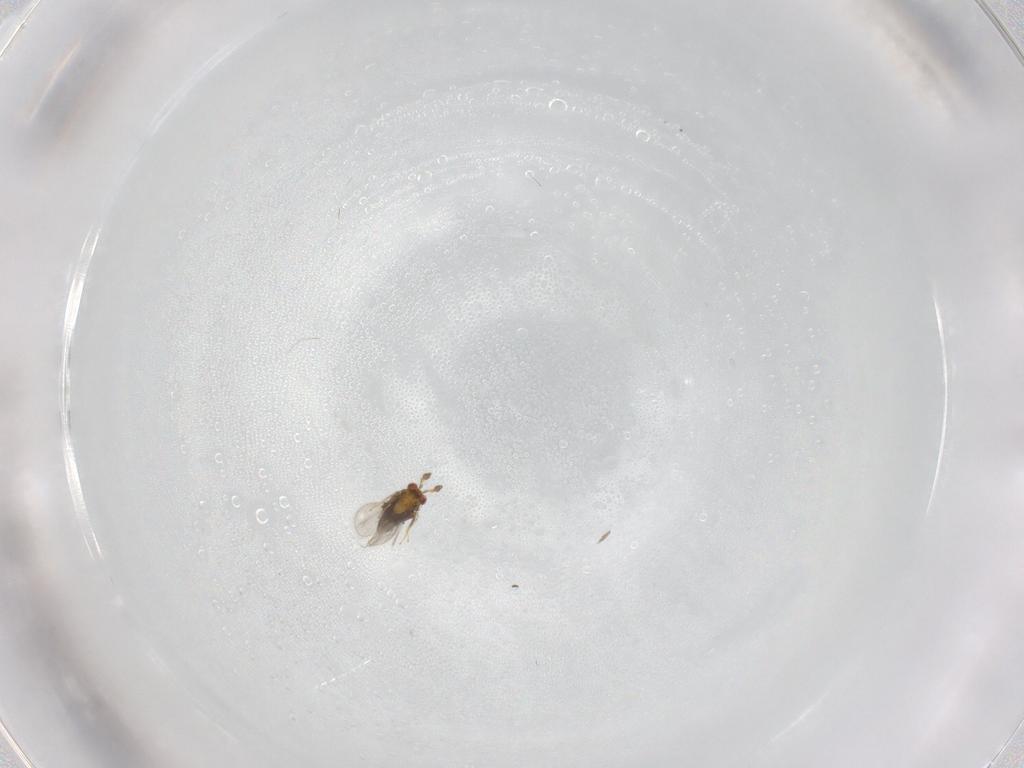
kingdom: Animalia
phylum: Arthropoda
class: Insecta
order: Hymenoptera
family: Trichogrammatidae
